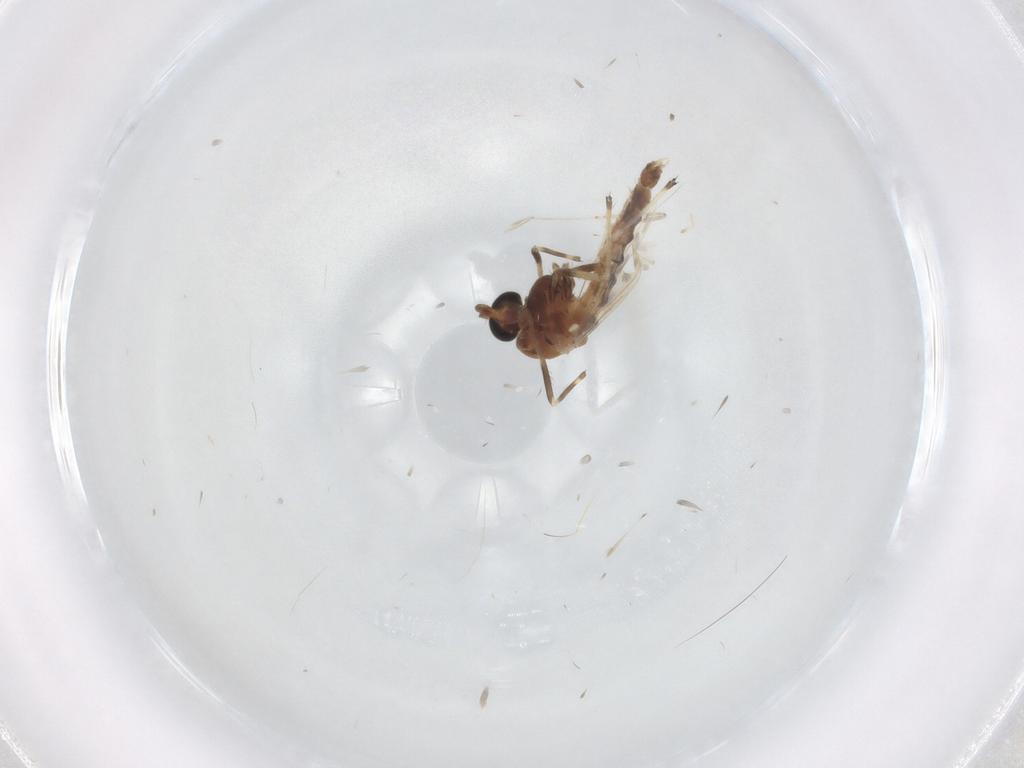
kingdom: Animalia
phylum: Arthropoda
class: Insecta
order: Diptera
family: Chironomidae
